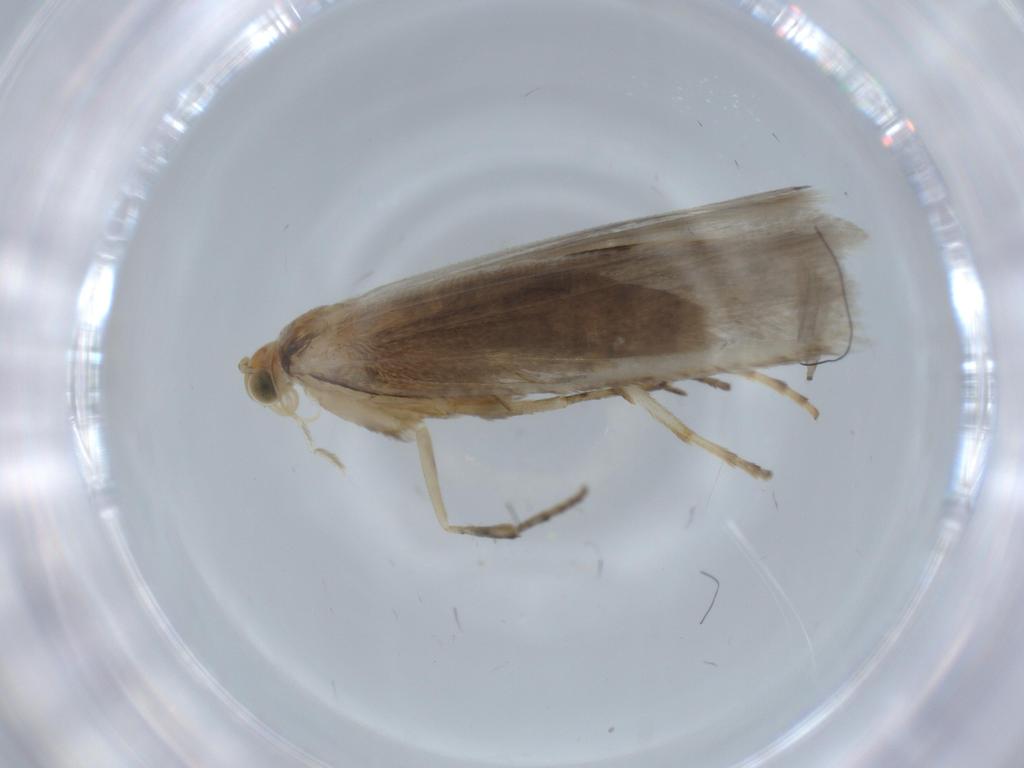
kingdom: Animalia
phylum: Arthropoda
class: Insecta
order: Lepidoptera
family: Argyresthiidae
